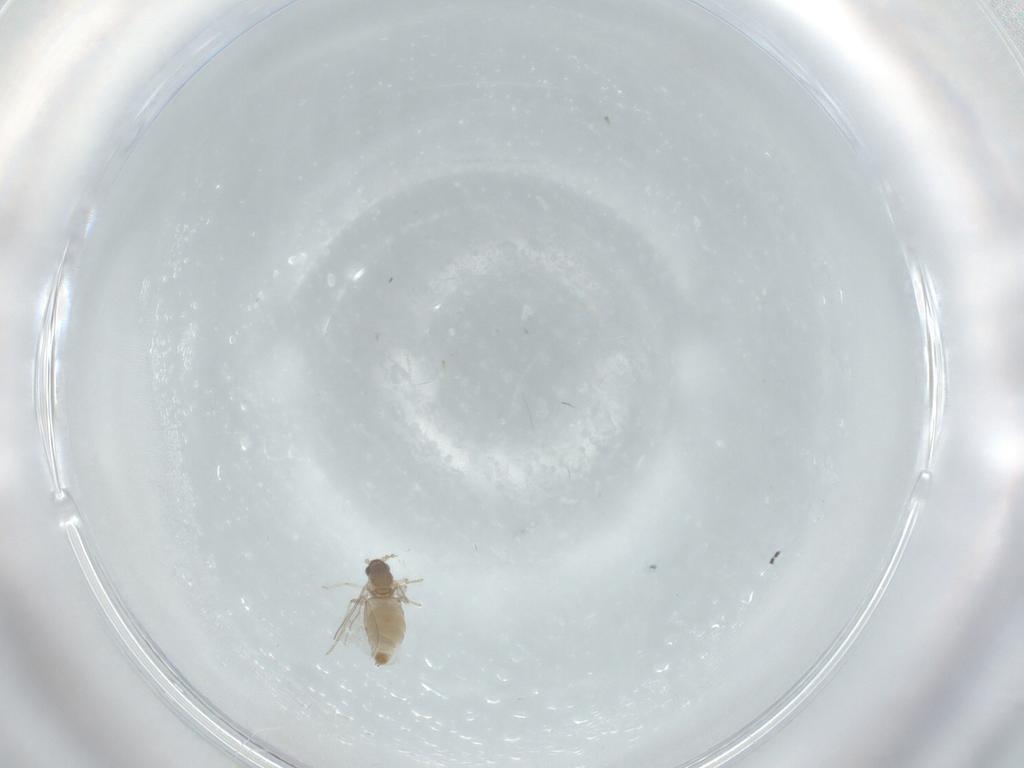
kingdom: Animalia
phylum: Arthropoda
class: Insecta
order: Diptera
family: Cecidomyiidae
